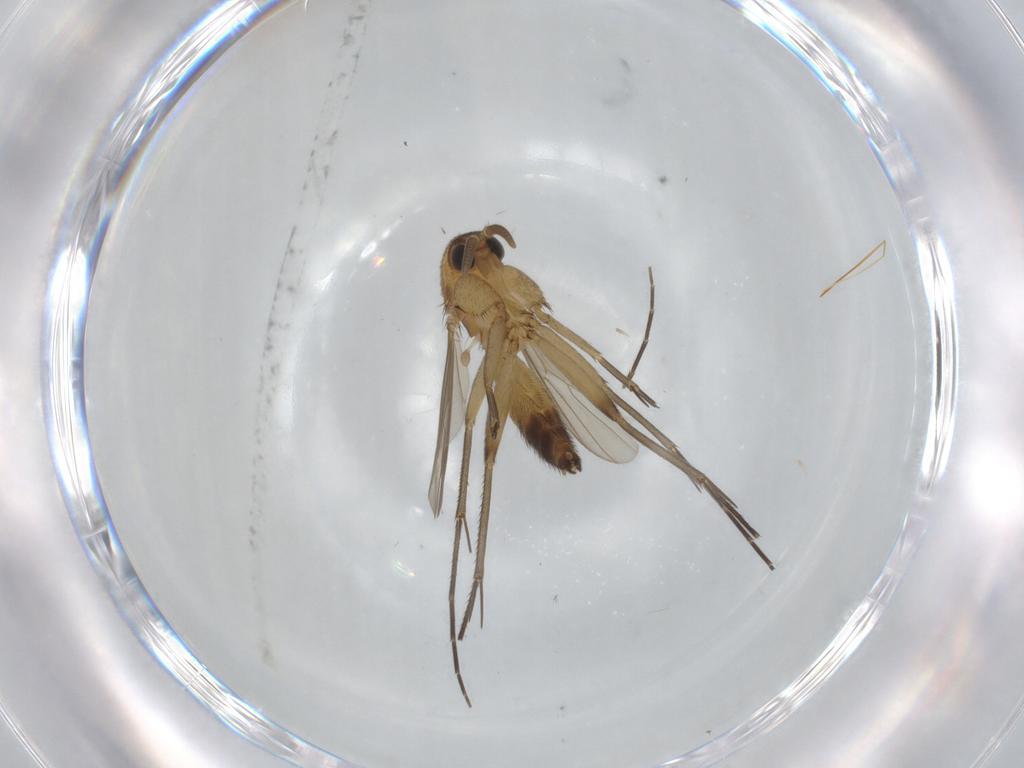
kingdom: Animalia
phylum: Arthropoda
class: Insecta
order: Diptera
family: Mycetophilidae
